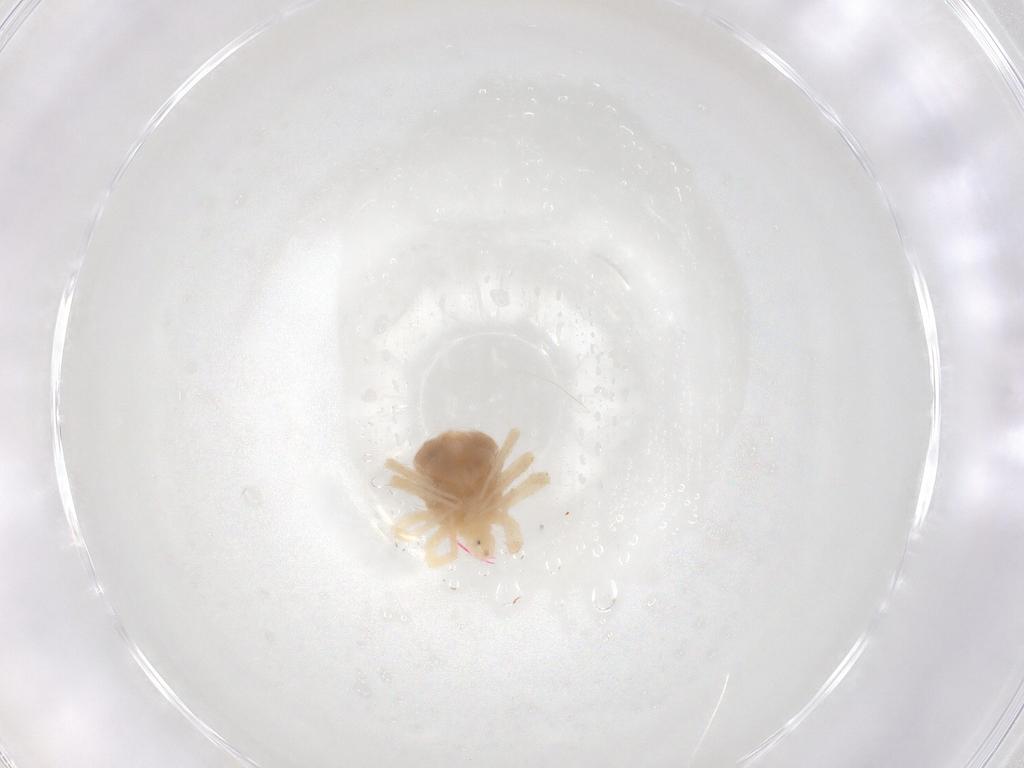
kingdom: Animalia
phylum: Arthropoda
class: Arachnida
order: Trombidiformes
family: Anystidae
